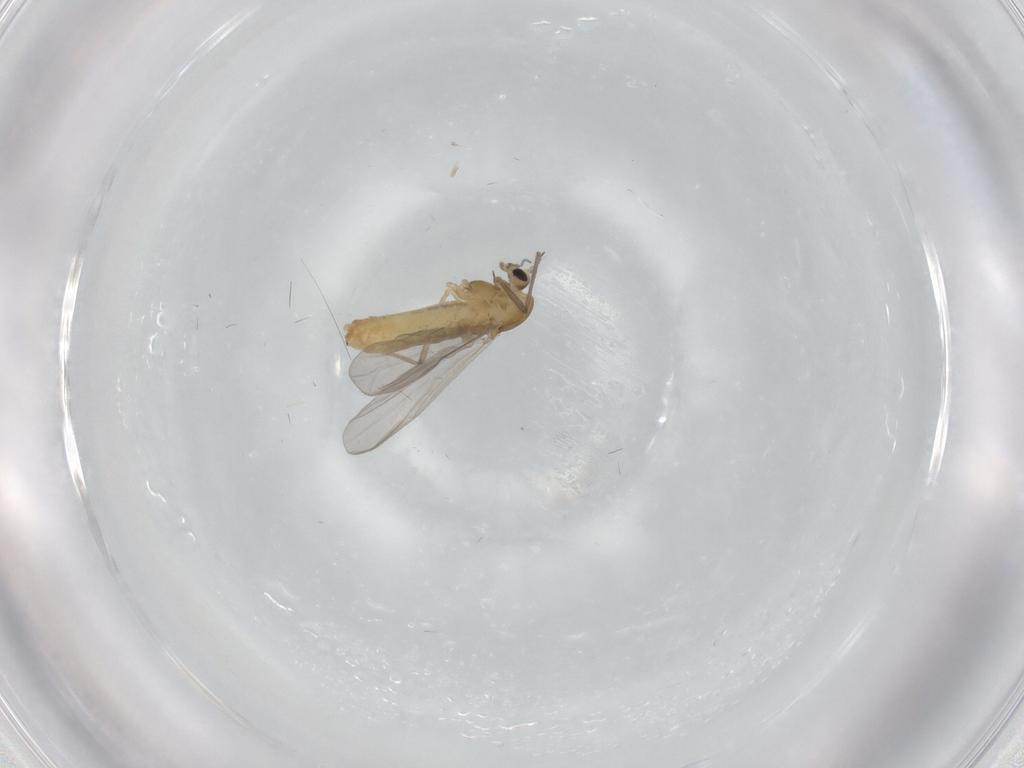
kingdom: Animalia
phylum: Arthropoda
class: Insecta
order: Diptera
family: Chironomidae
